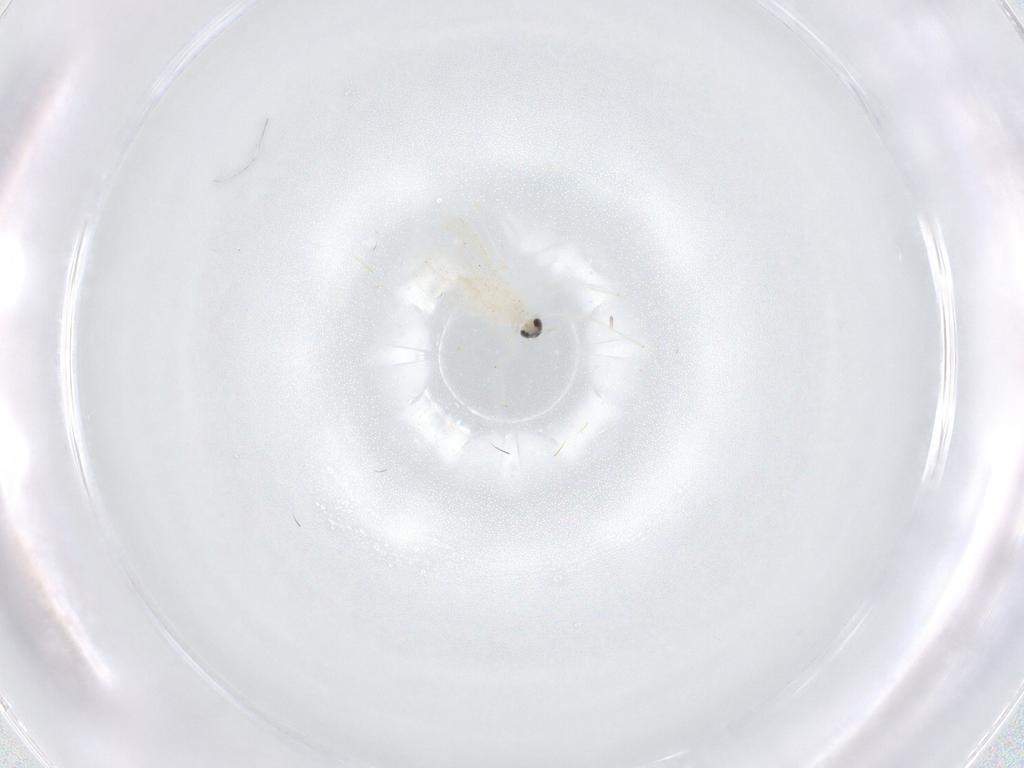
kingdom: Animalia
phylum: Arthropoda
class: Insecta
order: Diptera
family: Cecidomyiidae
